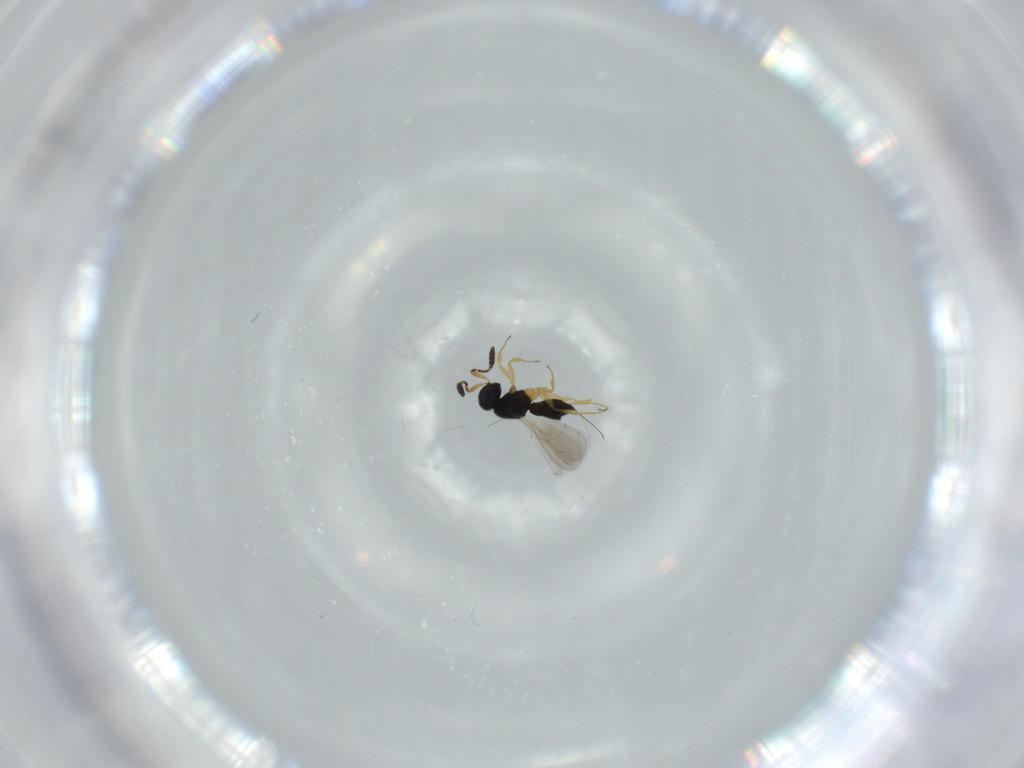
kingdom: Animalia
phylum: Arthropoda
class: Insecta
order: Hymenoptera
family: Scelionidae
